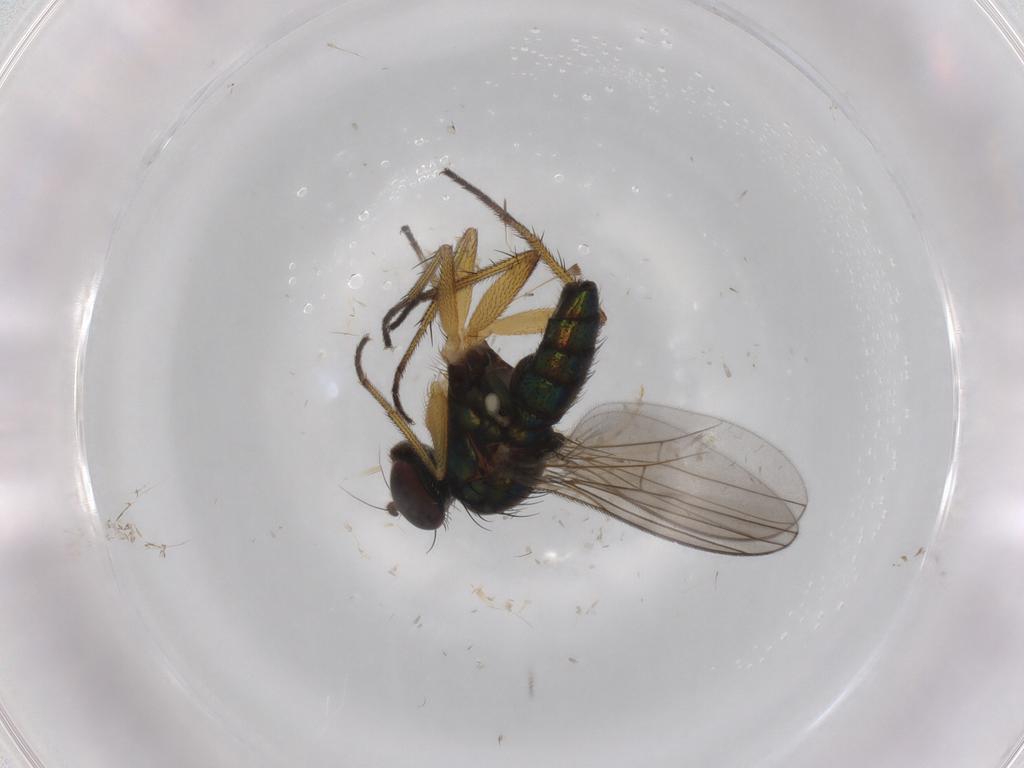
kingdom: Animalia
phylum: Arthropoda
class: Insecta
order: Diptera
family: Dolichopodidae
